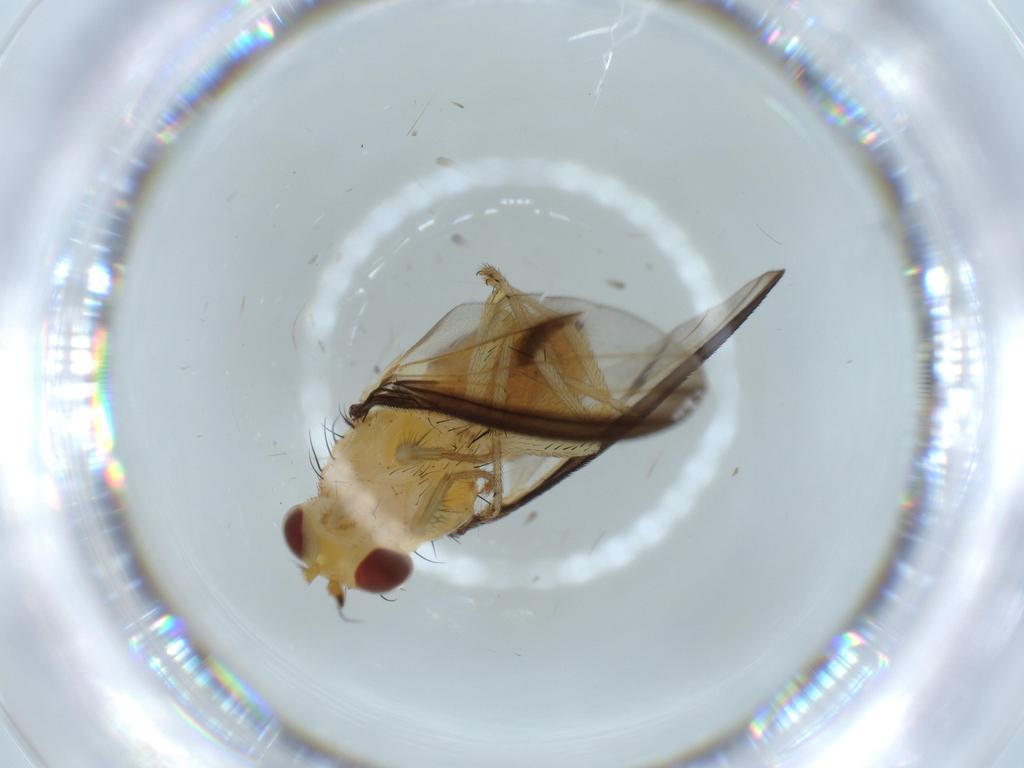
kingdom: Animalia
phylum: Arthropoda
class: Insecta
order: Diptera
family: Lauxaniidae
